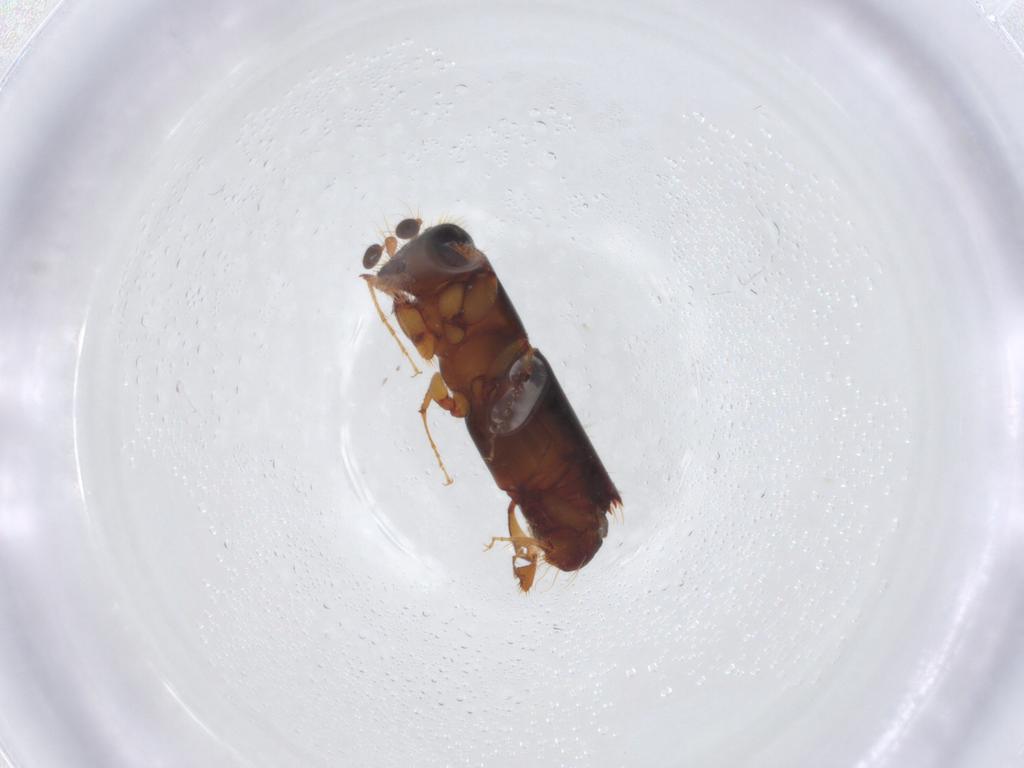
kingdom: Animalia
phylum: Arthropoda
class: Insecta
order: Coleoptera
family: Curculionidae
